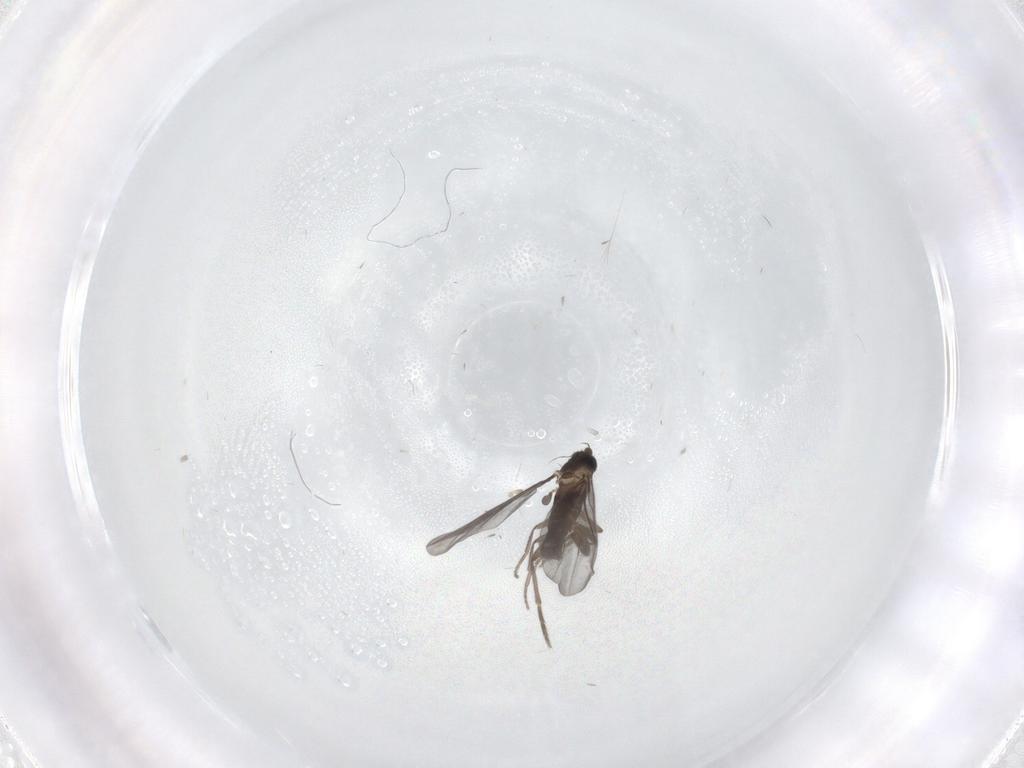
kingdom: Animalia
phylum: Arthropoda
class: Insecta
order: Diptera
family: Phoridae
